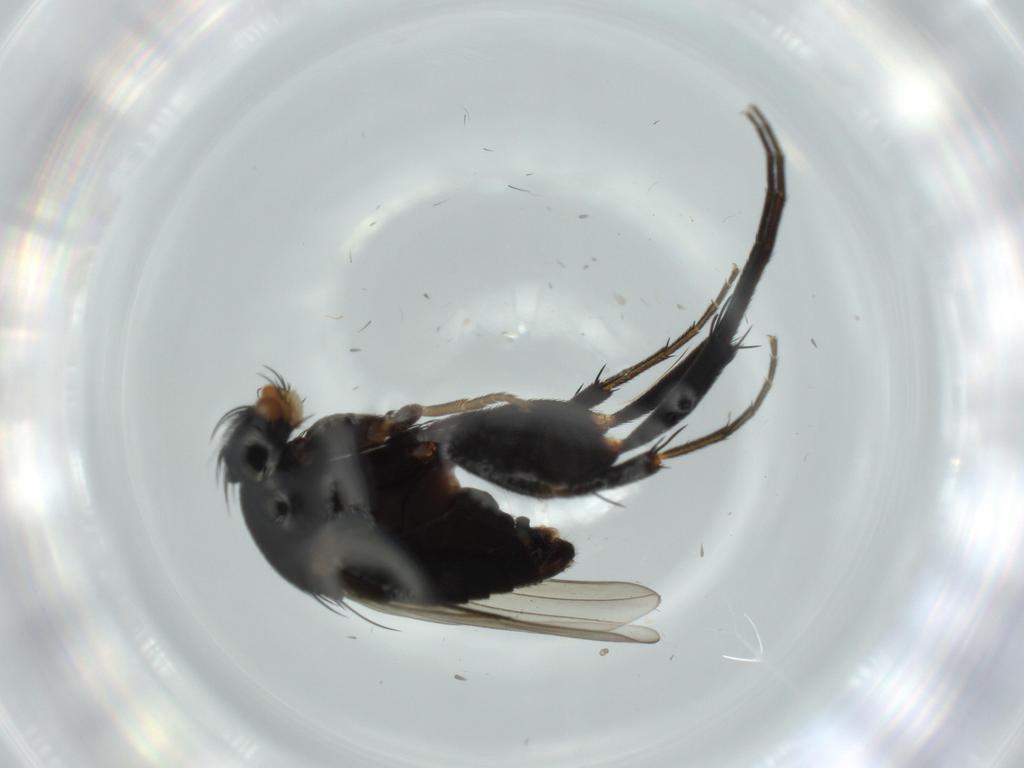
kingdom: Animalia
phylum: Arthropoda
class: Insecta
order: Diptera
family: Phoridae
